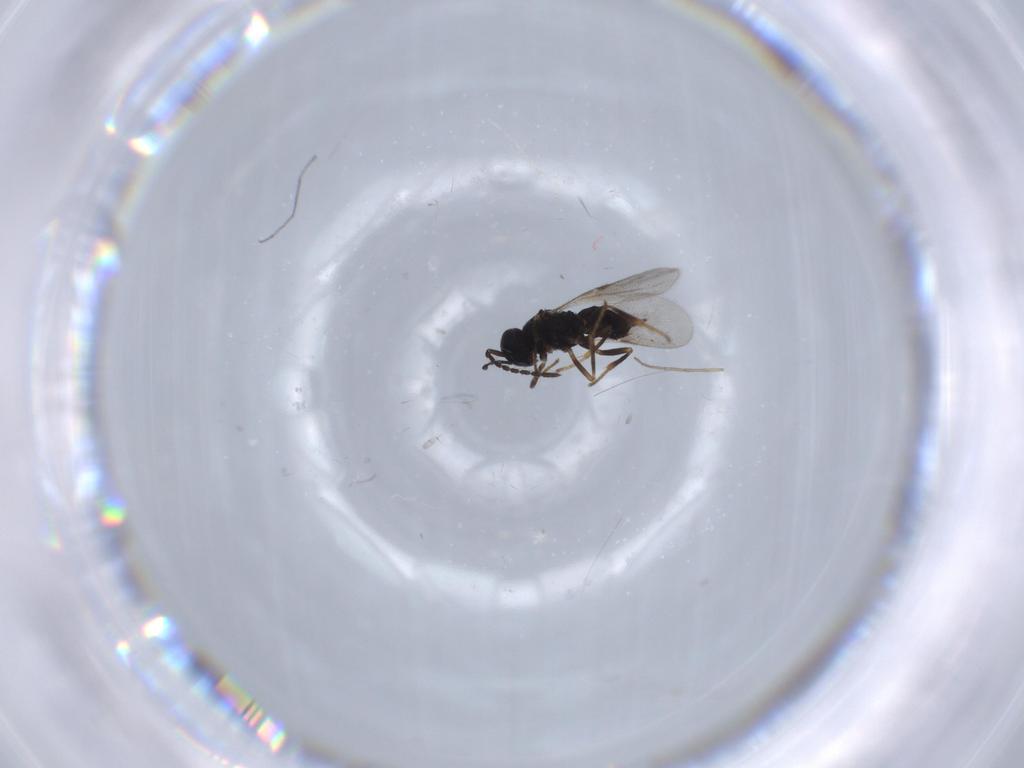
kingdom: Animalia
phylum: Arthropoda
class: Insecta
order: Hymenoptera
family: Encyrtidae
